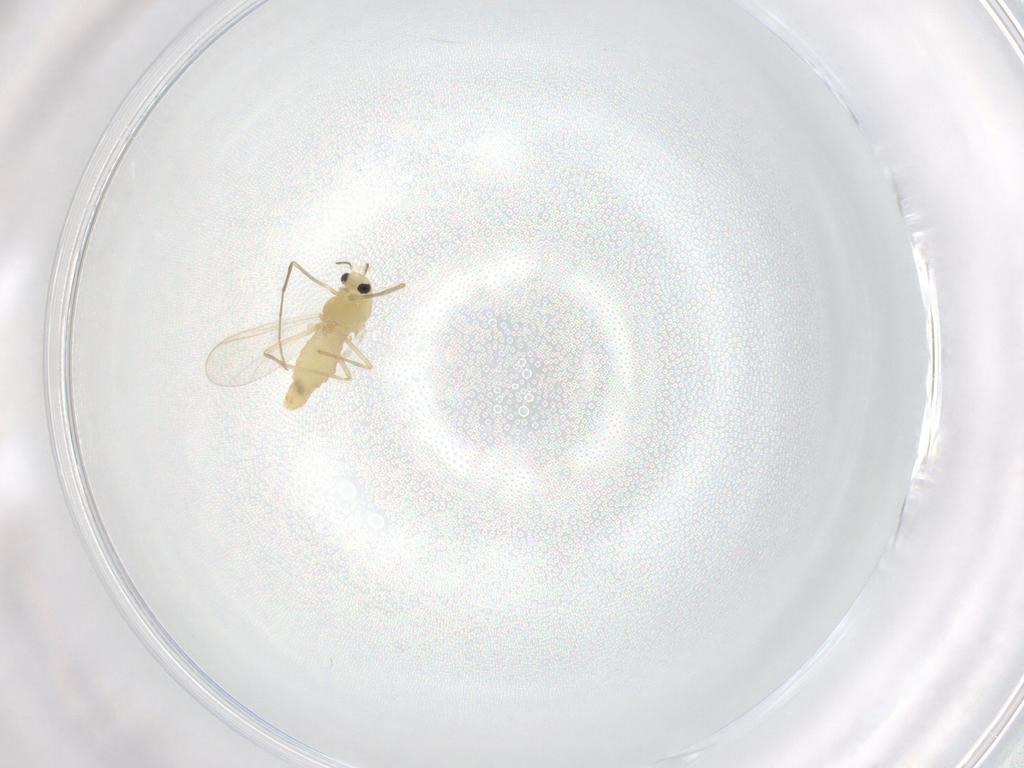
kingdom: Animalia
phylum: Arthropoda
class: Insecta
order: Diptera
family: Chironomidae
